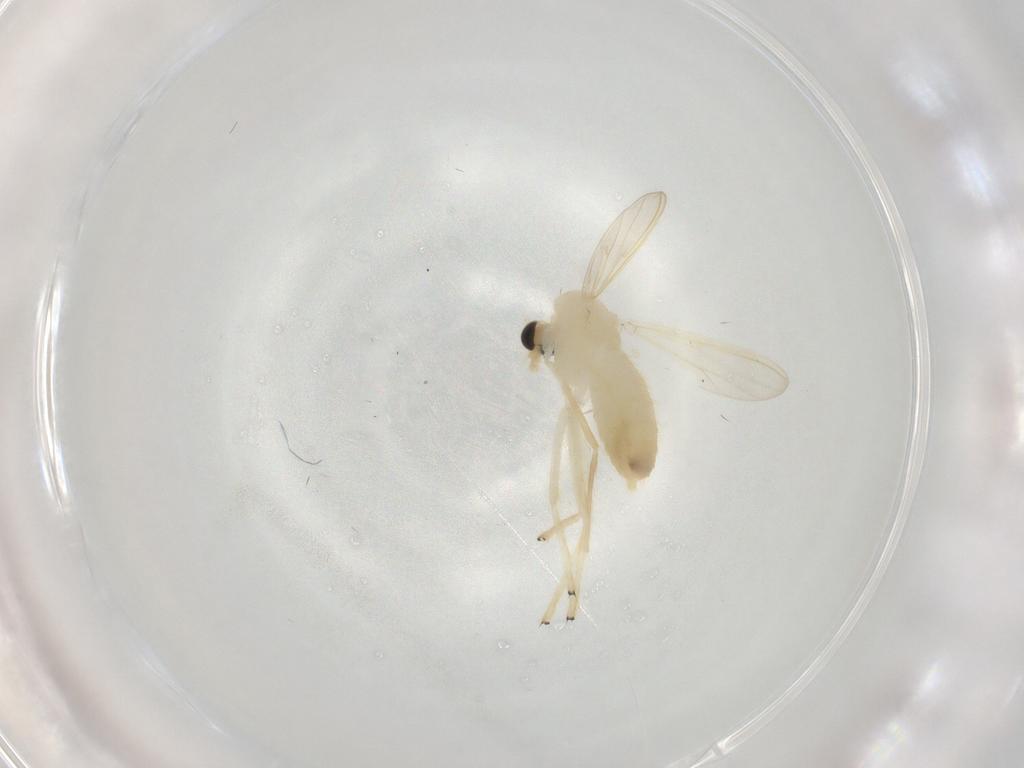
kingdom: Animalia
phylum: Arthropoda
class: Insecta
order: Diptera
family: Chironomidae
